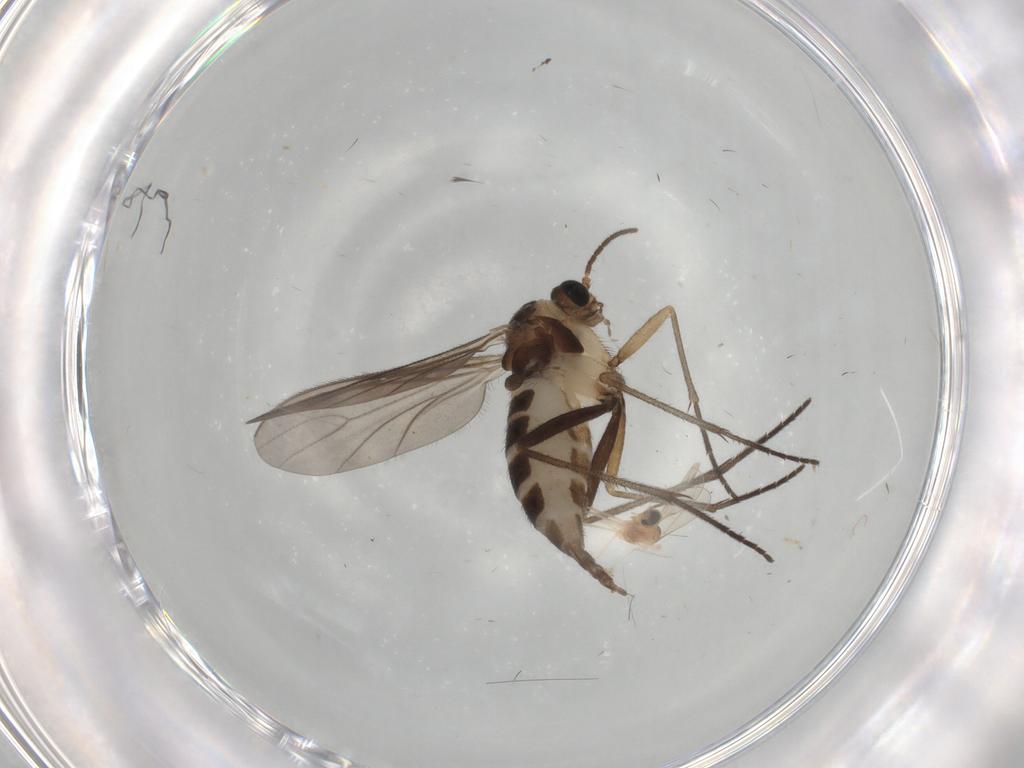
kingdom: Animalia
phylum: Arthropoda
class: Insecta
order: Diptera
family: Sciaridae
